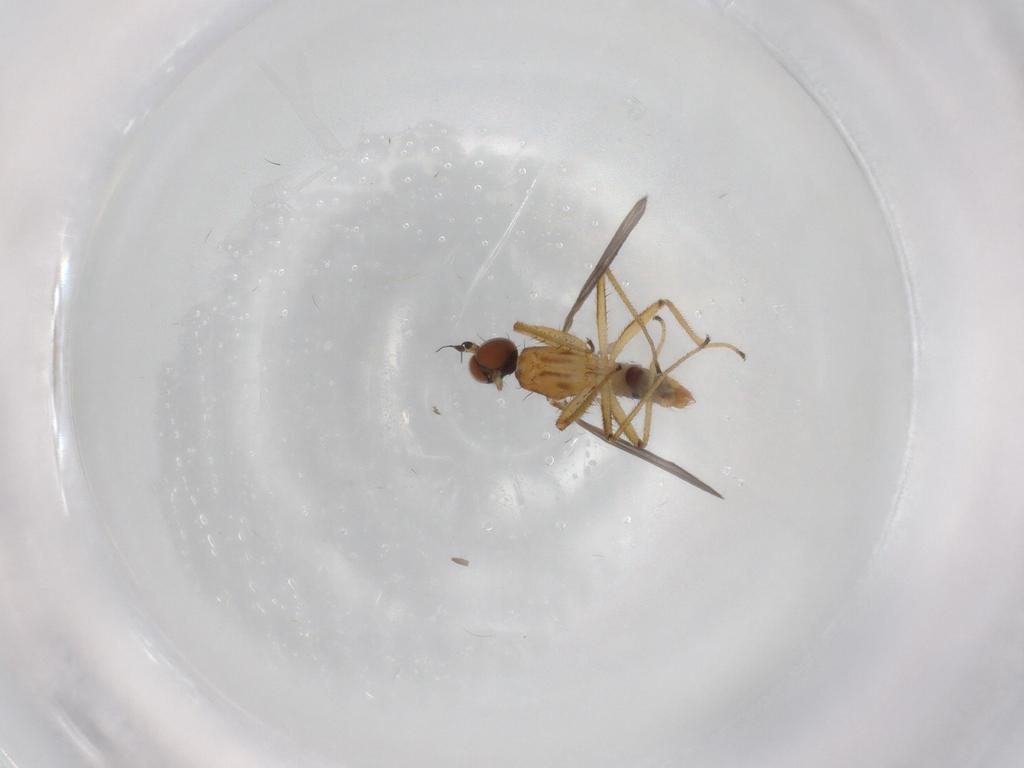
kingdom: Animalia
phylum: Arthropoda
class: Insecta
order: Diptera
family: Empididae
